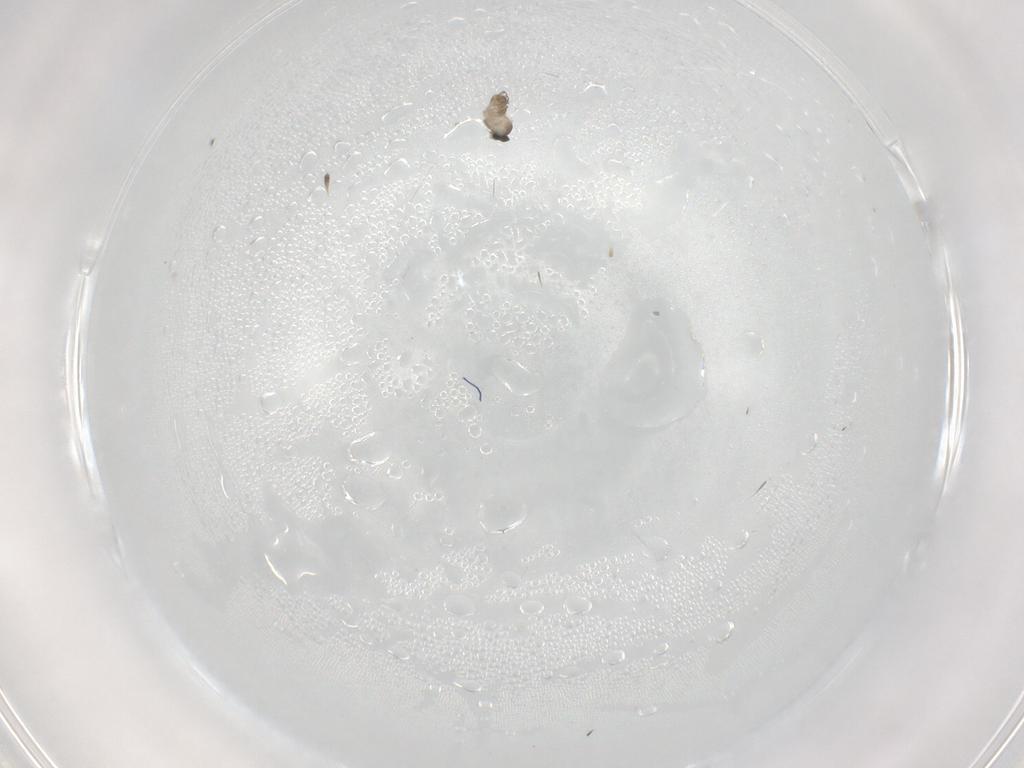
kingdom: Animalia
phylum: Arthropoda
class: Insecta
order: Diptera
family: Cecidomyiidae
